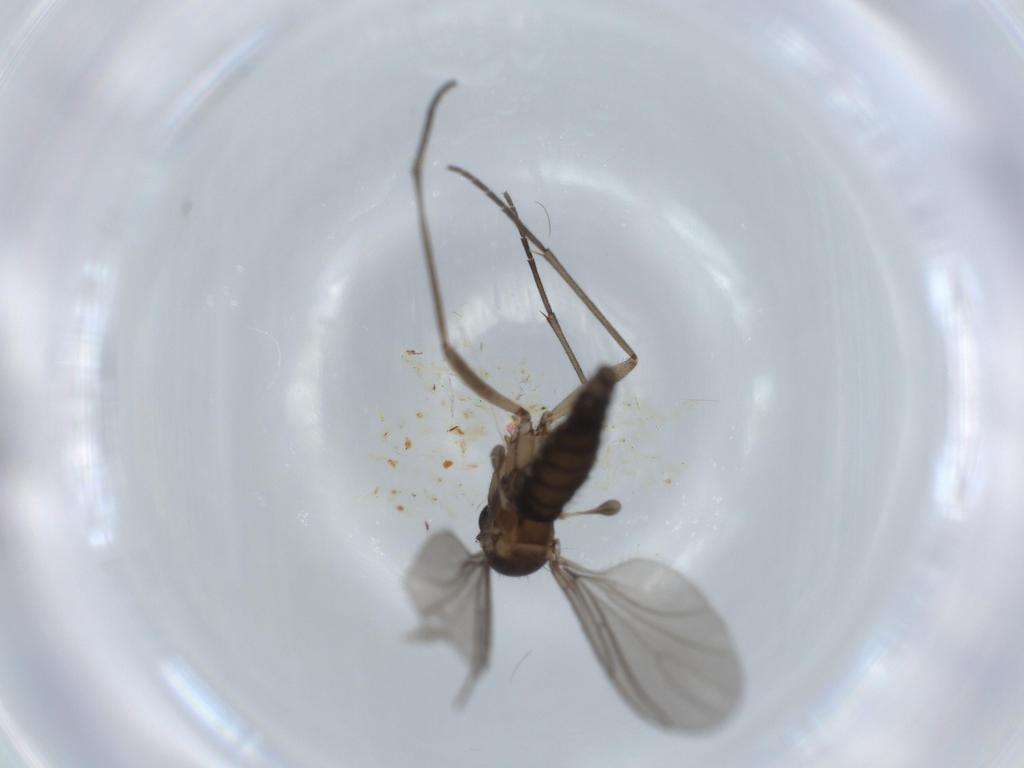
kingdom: Animalia
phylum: Arthropoda
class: Insecta
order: Diptera
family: Sciaridae
